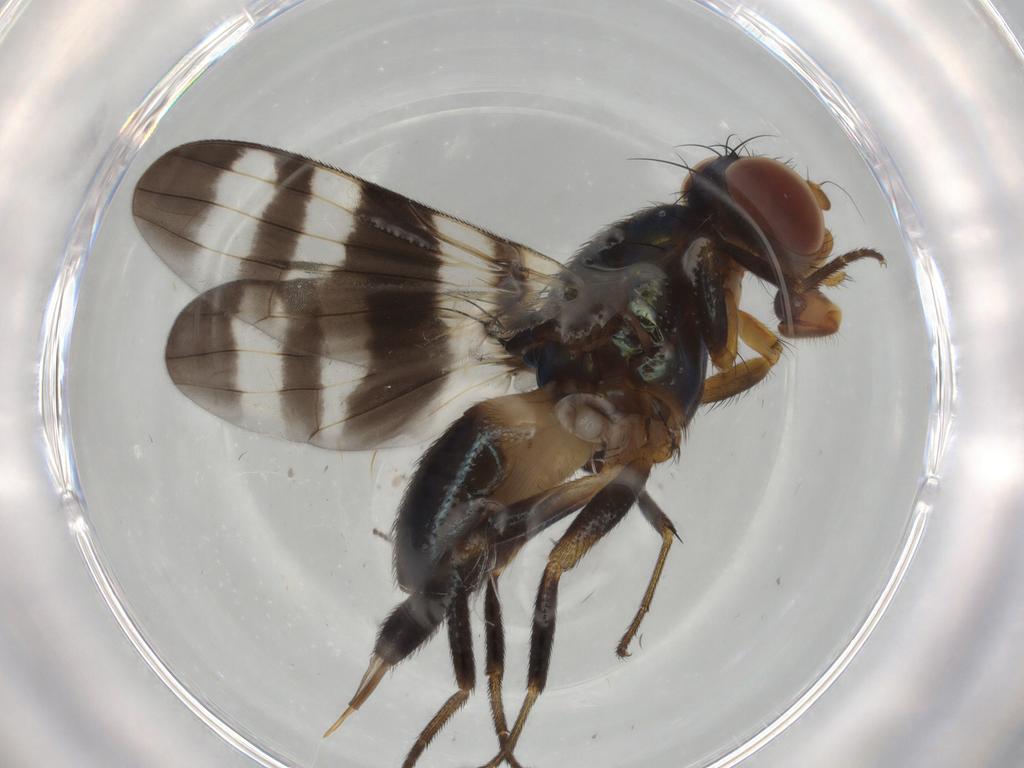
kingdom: Animalia
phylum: Arthropoda
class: Insecta
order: Diptera
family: Ulidiidae
